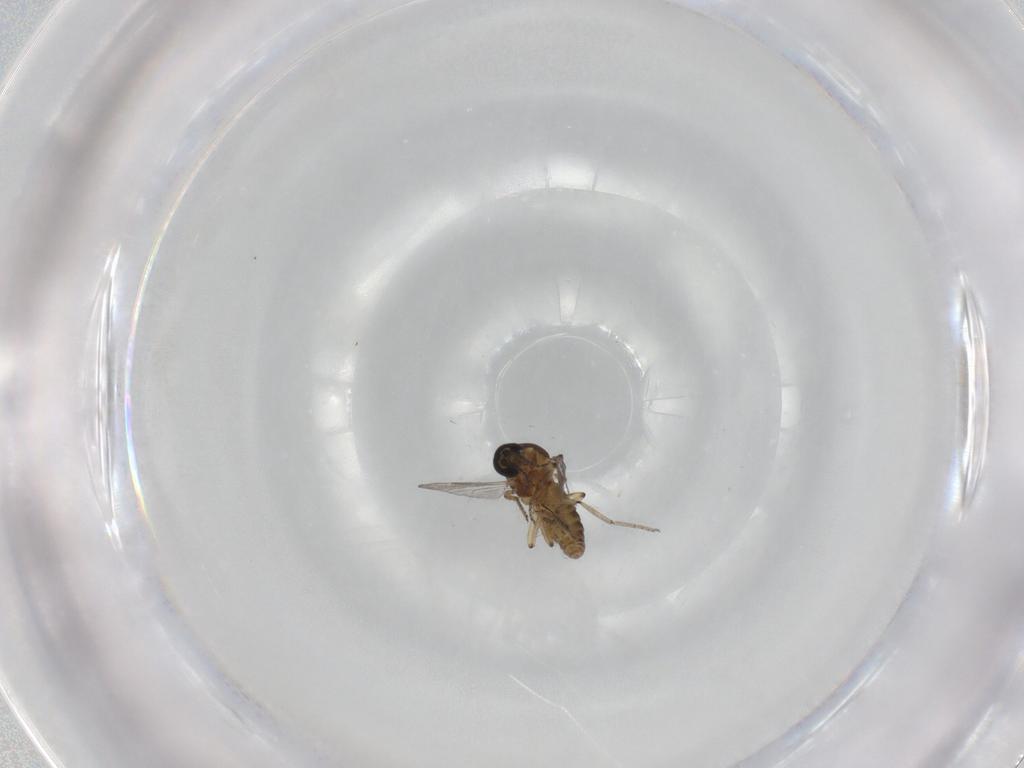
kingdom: Animalia
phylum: Arthropoda
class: Insecta
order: Diptera
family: Ceratopogonidae
